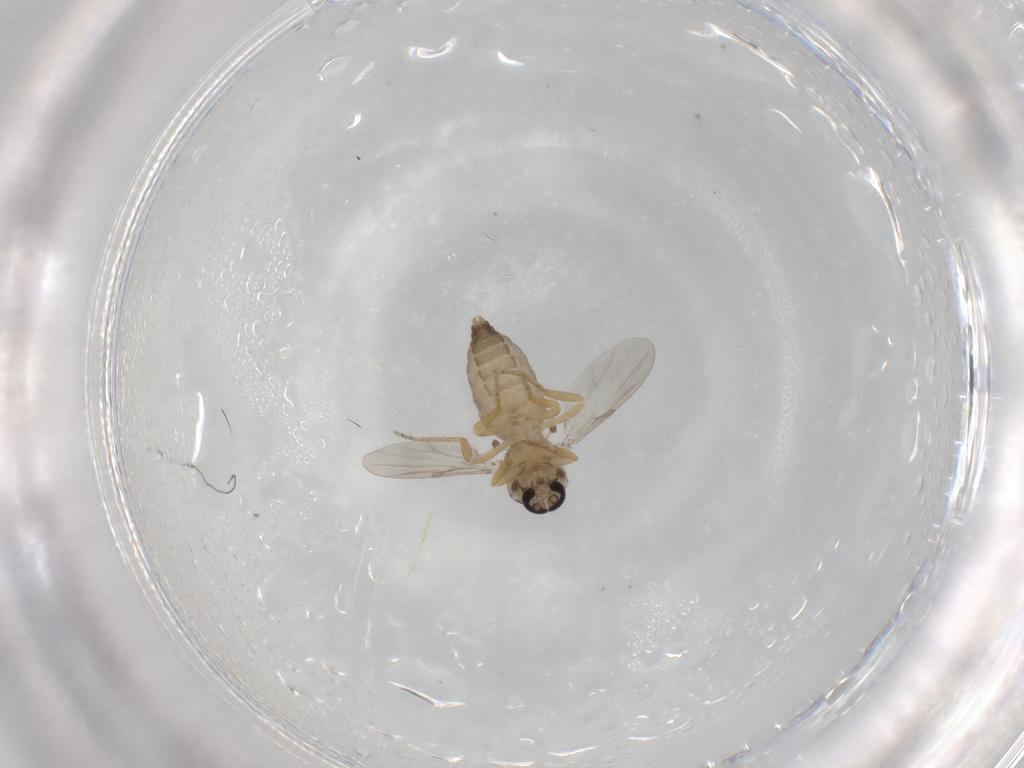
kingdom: Animalia
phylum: Arthropoda
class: Insecta
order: Diptera
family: Ceratopogonidae
